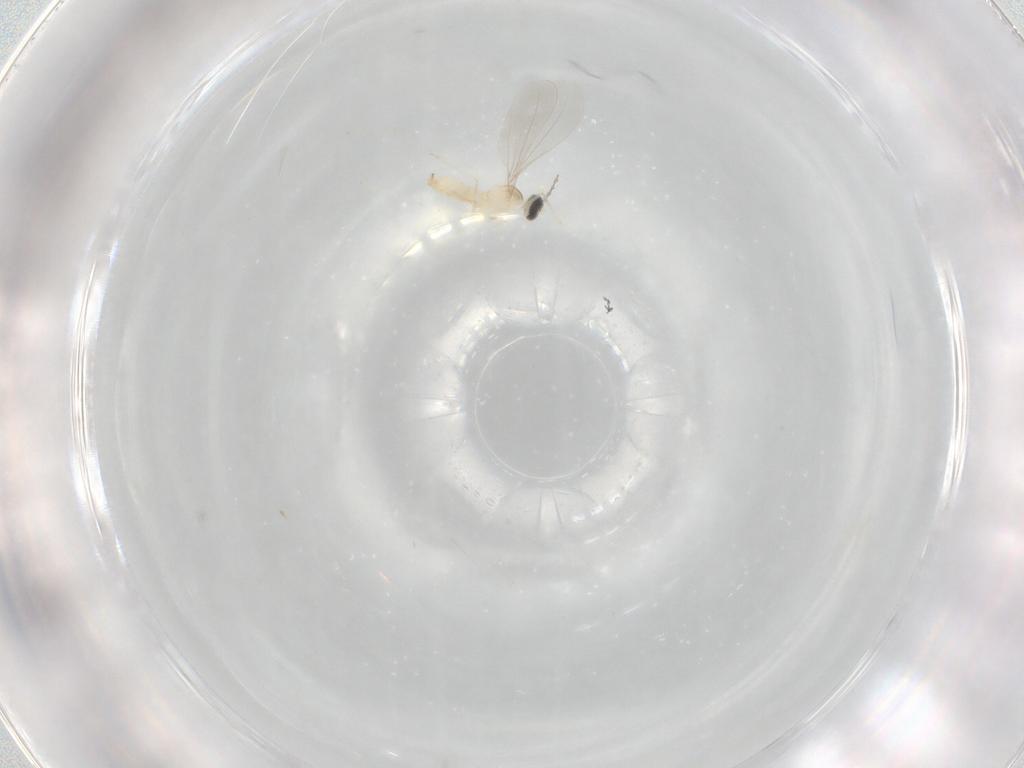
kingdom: Animalia
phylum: Arthropoda
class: Insecta
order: Diptera
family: Cecidomyiidae
